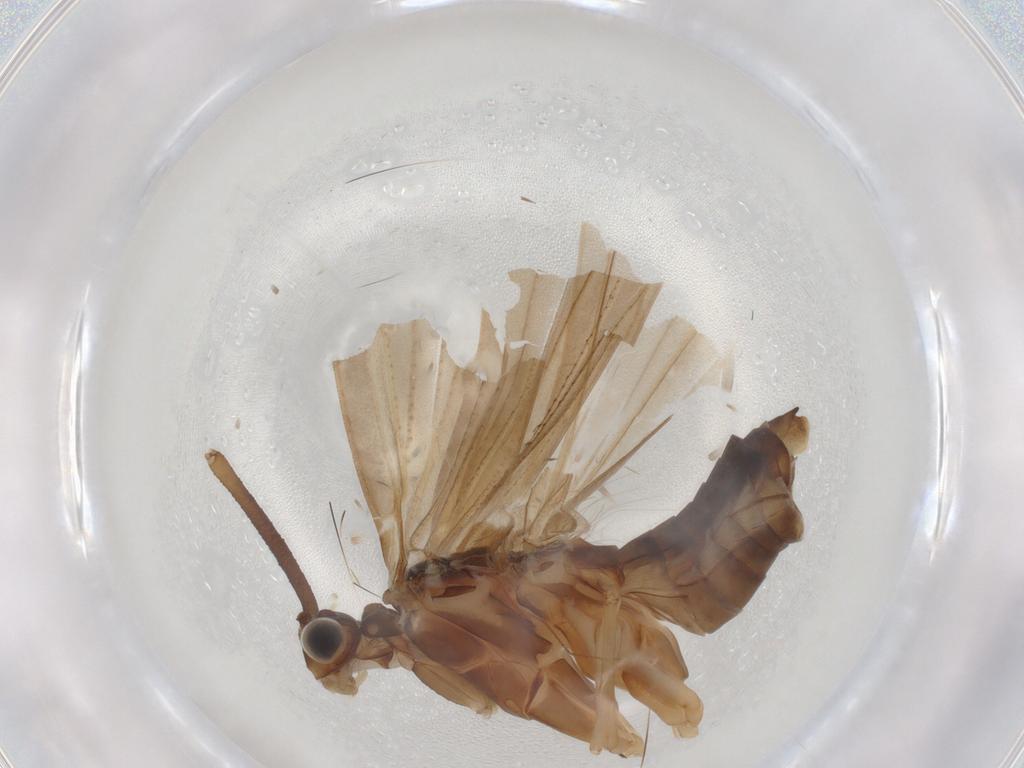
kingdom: Animalia
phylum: Arthropoda
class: Insecta
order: Trichoptera
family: Lepidostomatidae
